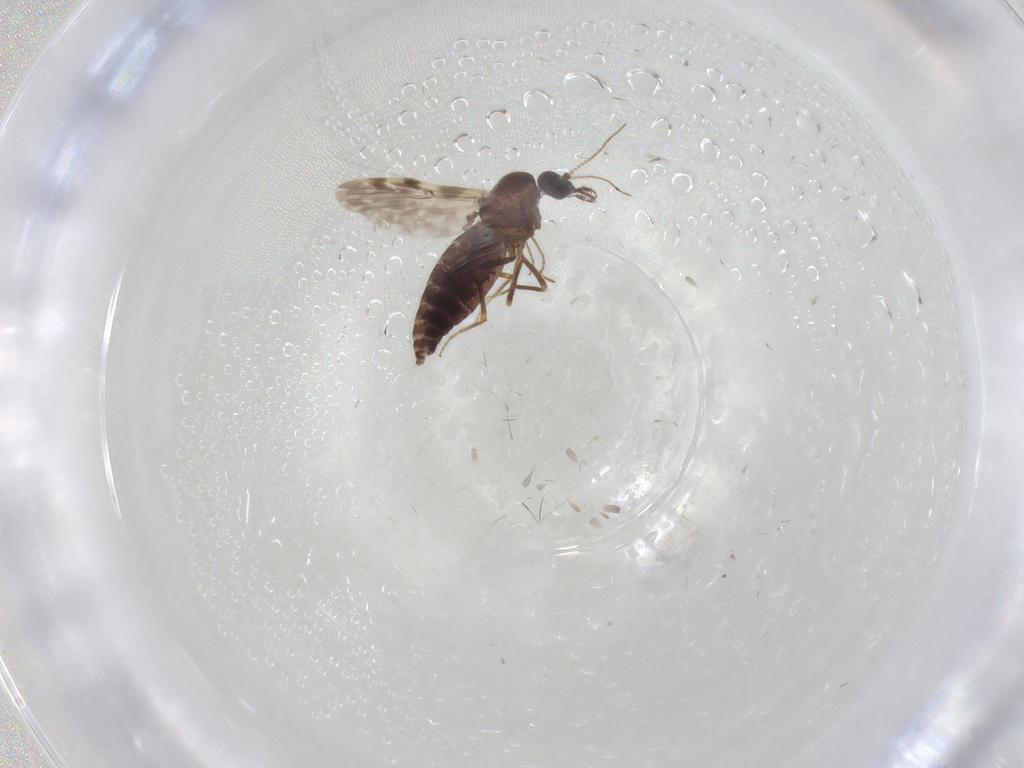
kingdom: Animalia
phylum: Arthropoda
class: Insecta
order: Diptera
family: Ceratopogonidae
